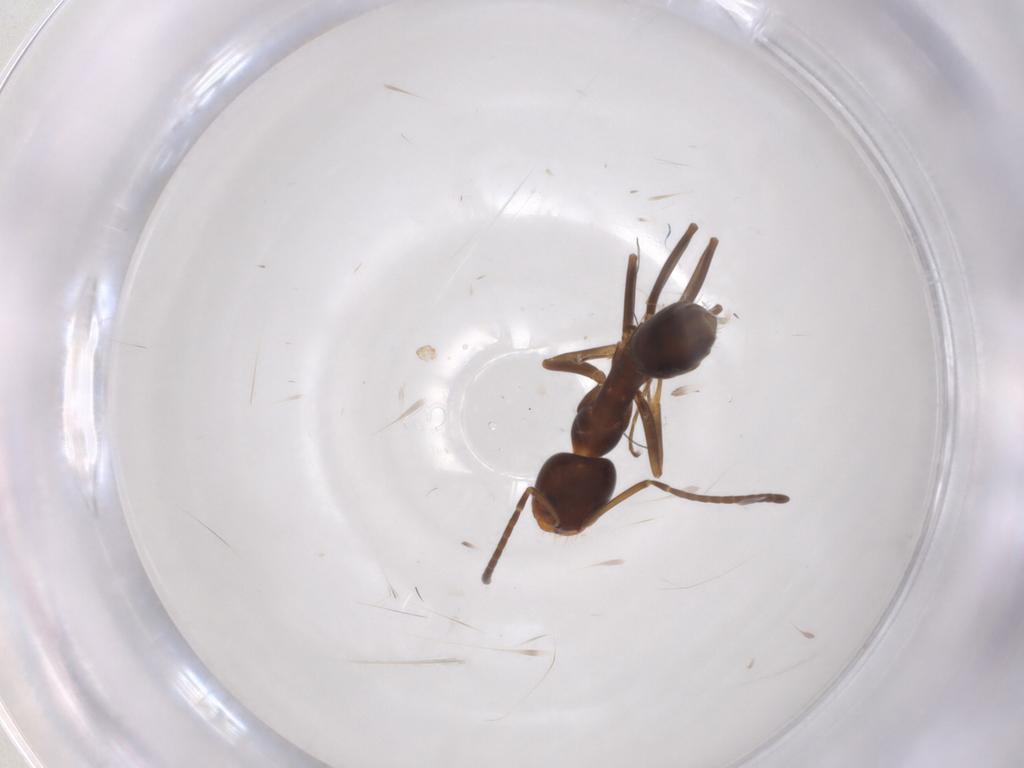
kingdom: Animalia
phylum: Arthropoda
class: Insecta
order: Hymenoptera
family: Formicidae
